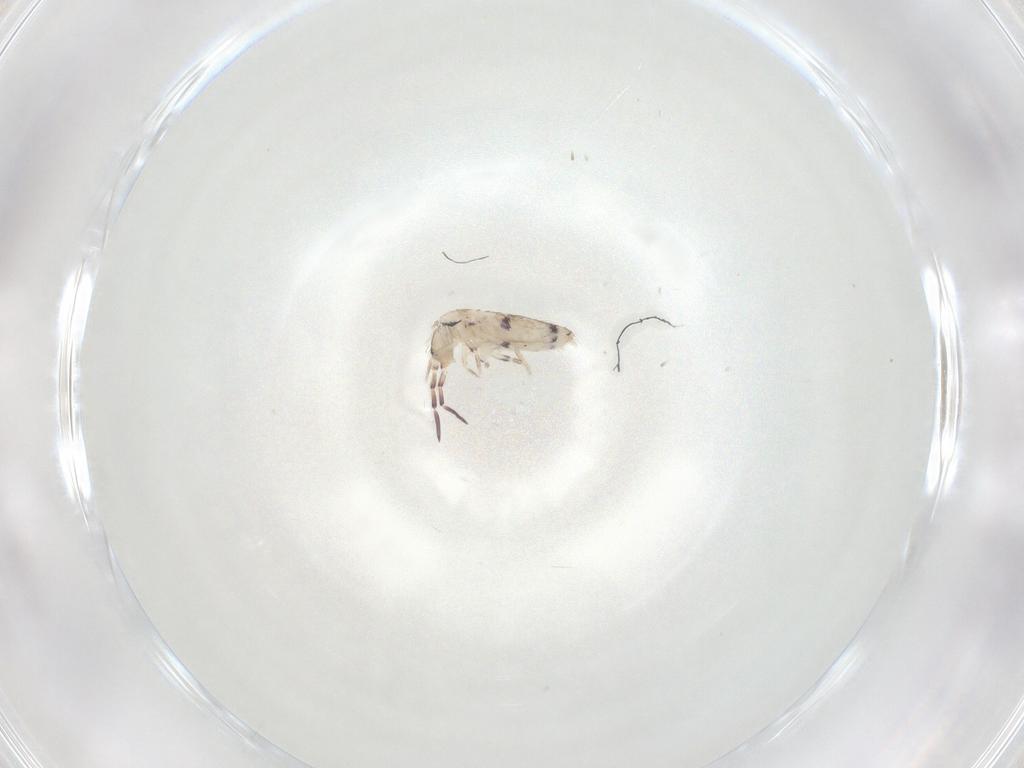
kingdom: Animalia
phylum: Arthropoda
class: Collembola
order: Entomobryomorpha
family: Entomobryidae
